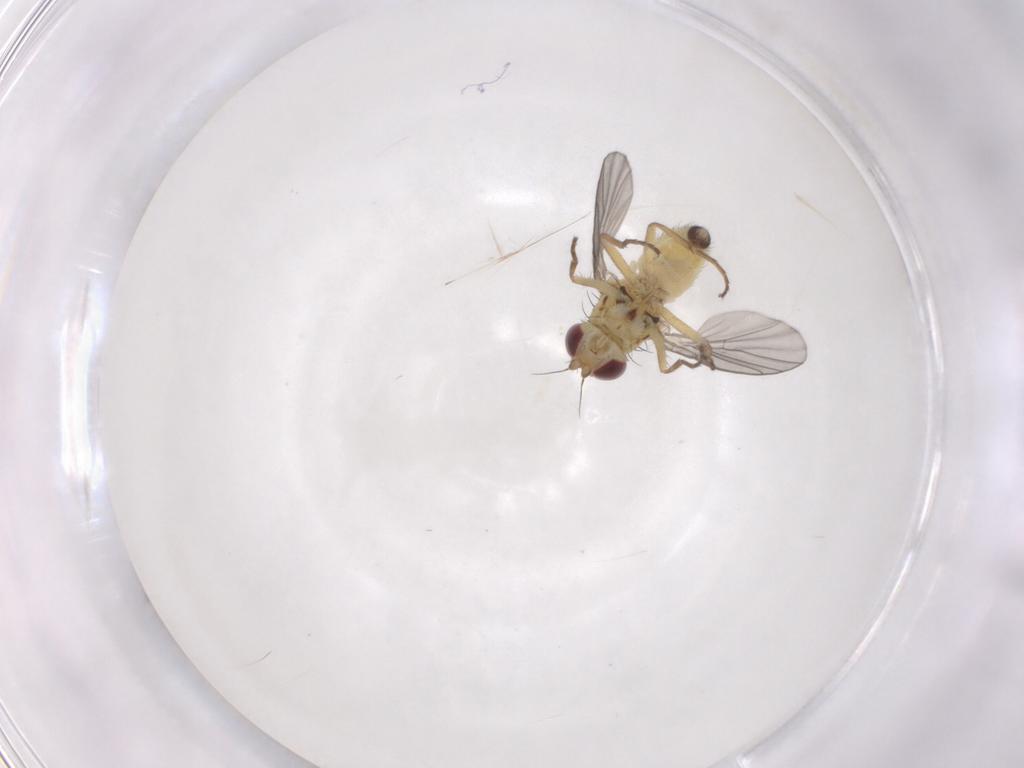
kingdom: Animalia
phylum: Arthropoda
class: Insecta
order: Diptera
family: Agromyzidae
